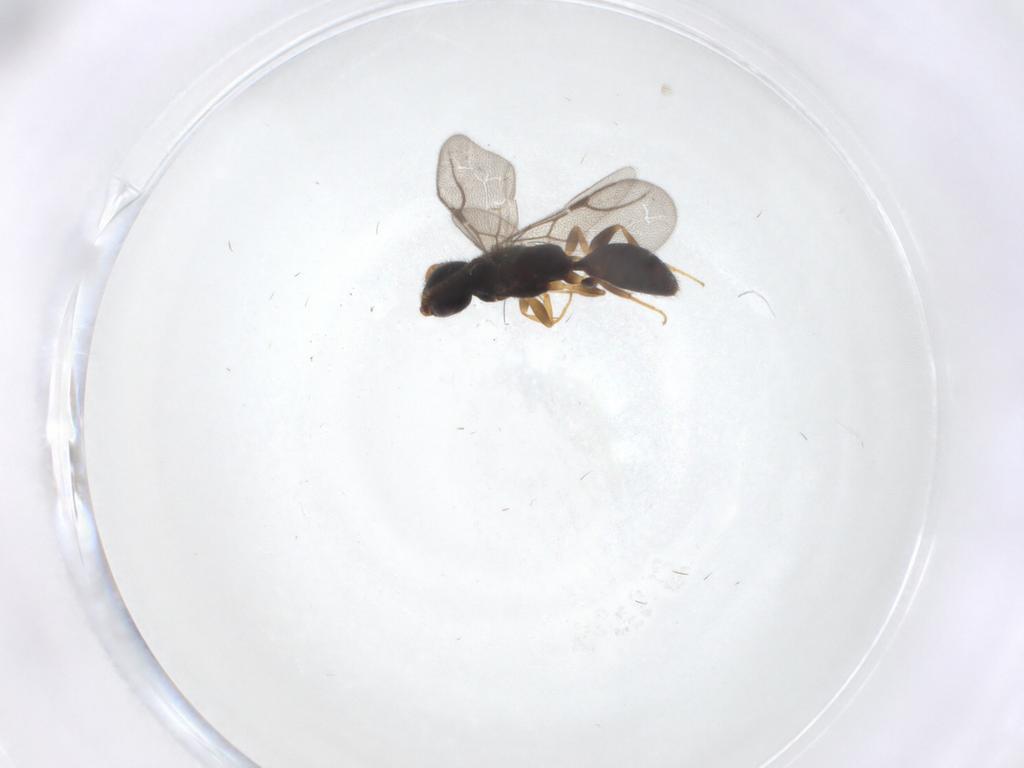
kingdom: Animalia
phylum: Arthropoda
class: Insecta
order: Hymenoptera
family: Bethylidae
